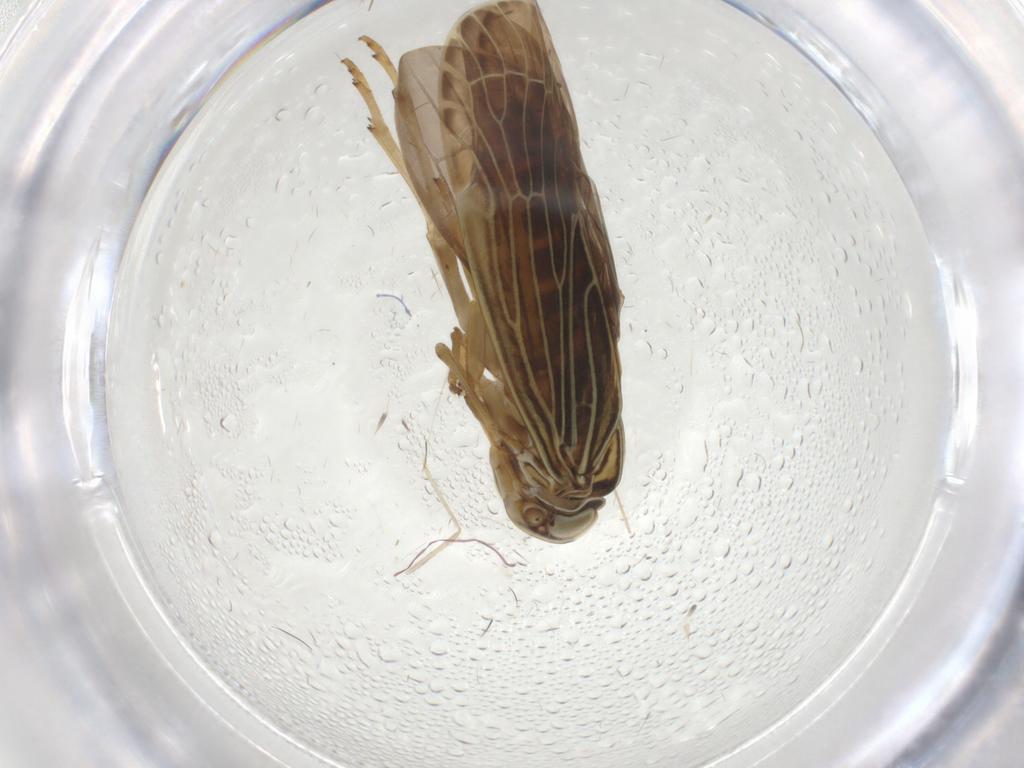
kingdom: Animalia
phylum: Arthropoda
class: Insecta
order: Hemiptera
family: Achilidae
